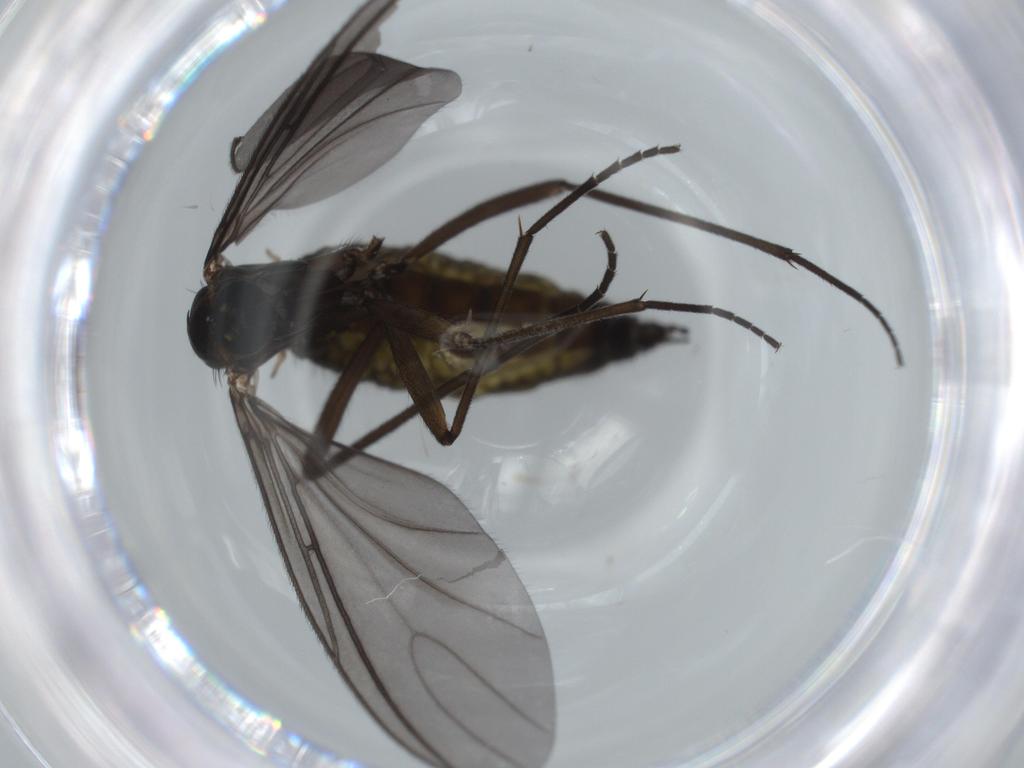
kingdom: Animalia
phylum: Arthropoda
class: Insecta
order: Diptera
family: Sciaridae
